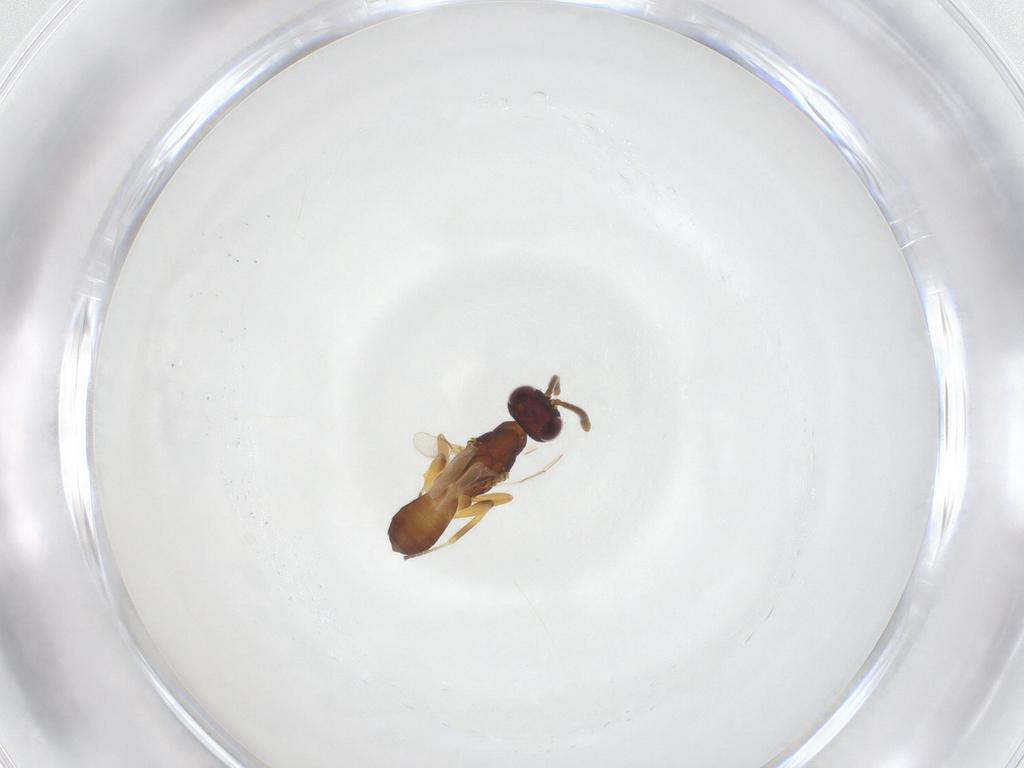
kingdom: Animalia
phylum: Arthropoda
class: Insecta
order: Hymenoptera
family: Eupelmidae
